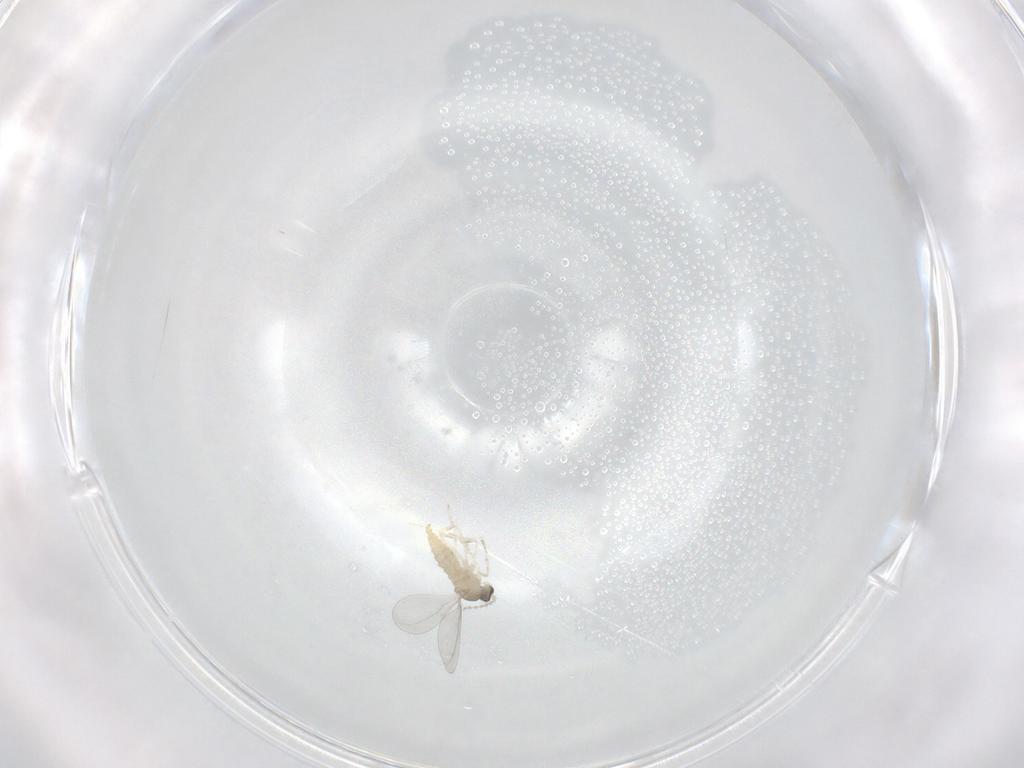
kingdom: Animalia
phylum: Arthropoda
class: Insecta
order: Diptera
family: Cecidomyiidae
